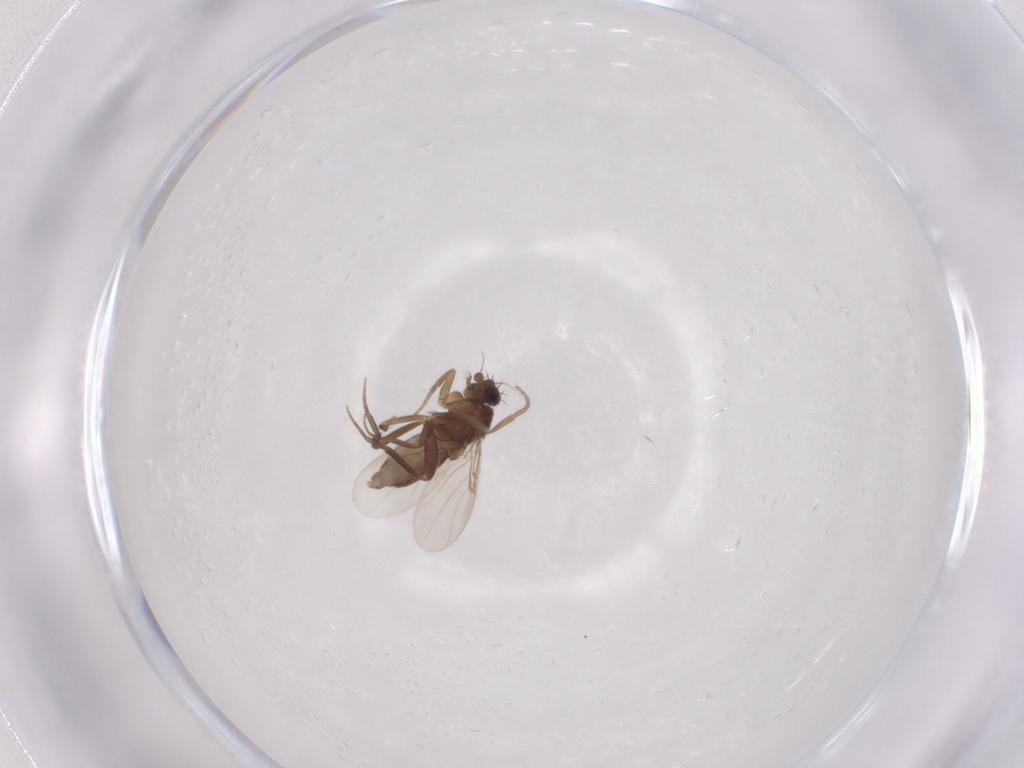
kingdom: Animalia
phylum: Arthropoda
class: Insecta
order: Diptera
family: Phoridae
